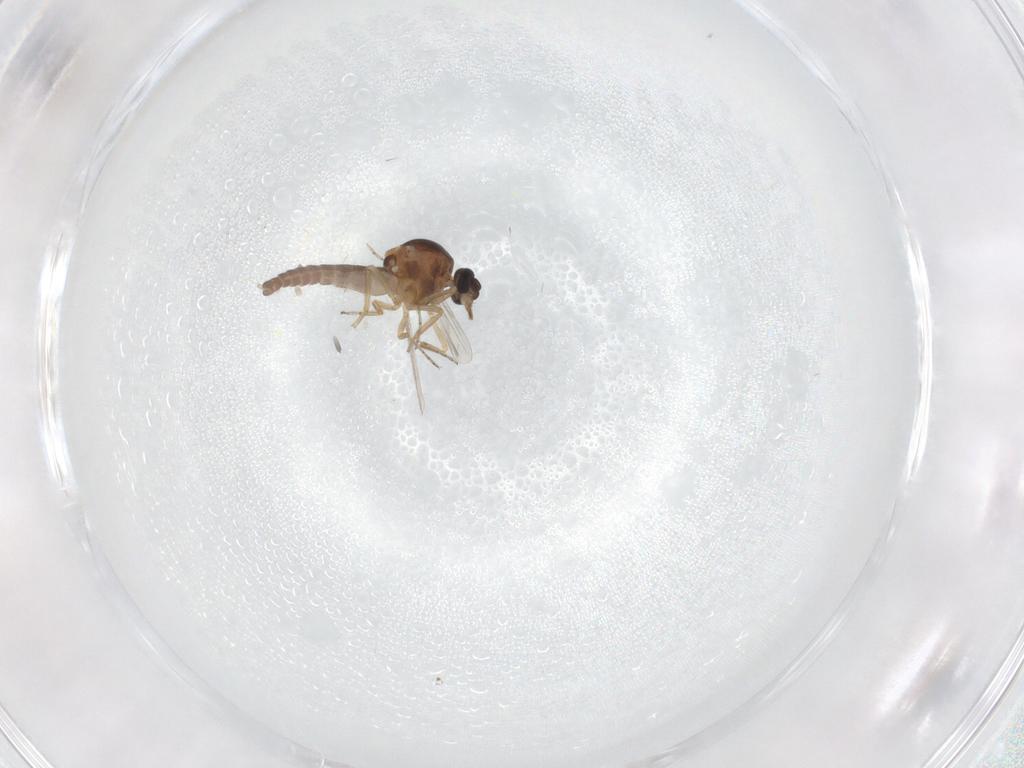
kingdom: Animalia
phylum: Arthropoda
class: Insecta
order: Diptera
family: Ceratopogonidae
